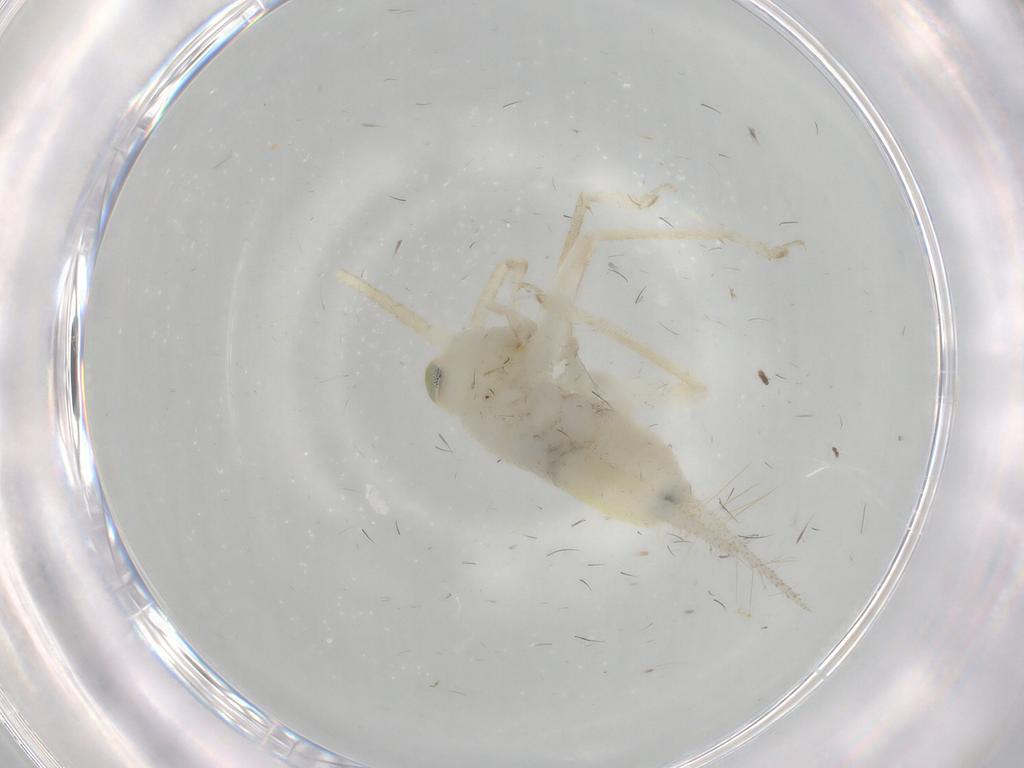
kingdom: Animalia
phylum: Arthropoda
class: Insecta
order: Orthoptera
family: Trigonidiidae
